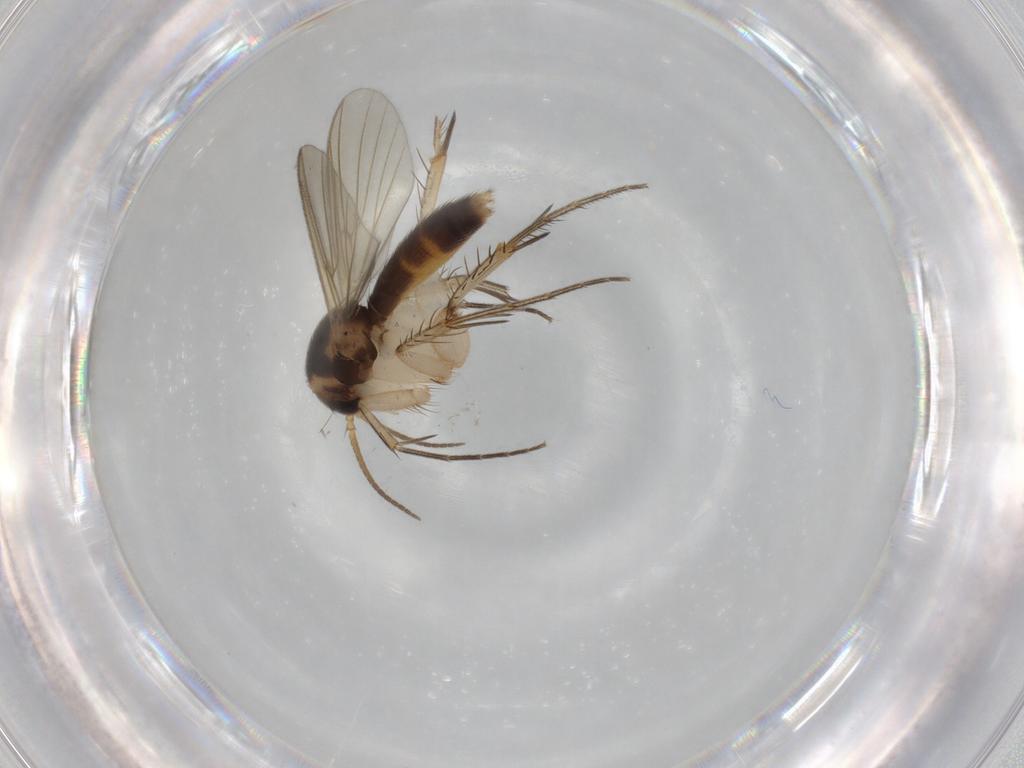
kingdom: Animalia
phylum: Arthropoda
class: Insecta
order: Diptera
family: Mycetophilidae
